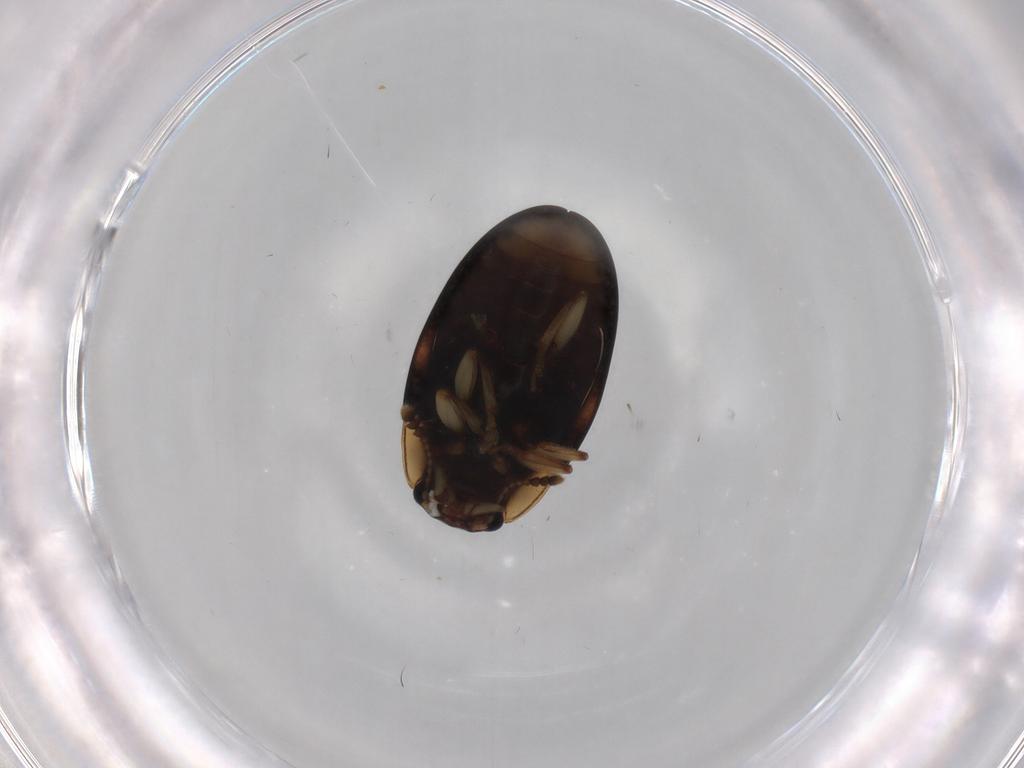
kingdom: Animalia
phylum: Arthropoda
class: Insecta
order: Coleoptera
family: Erotylidae
